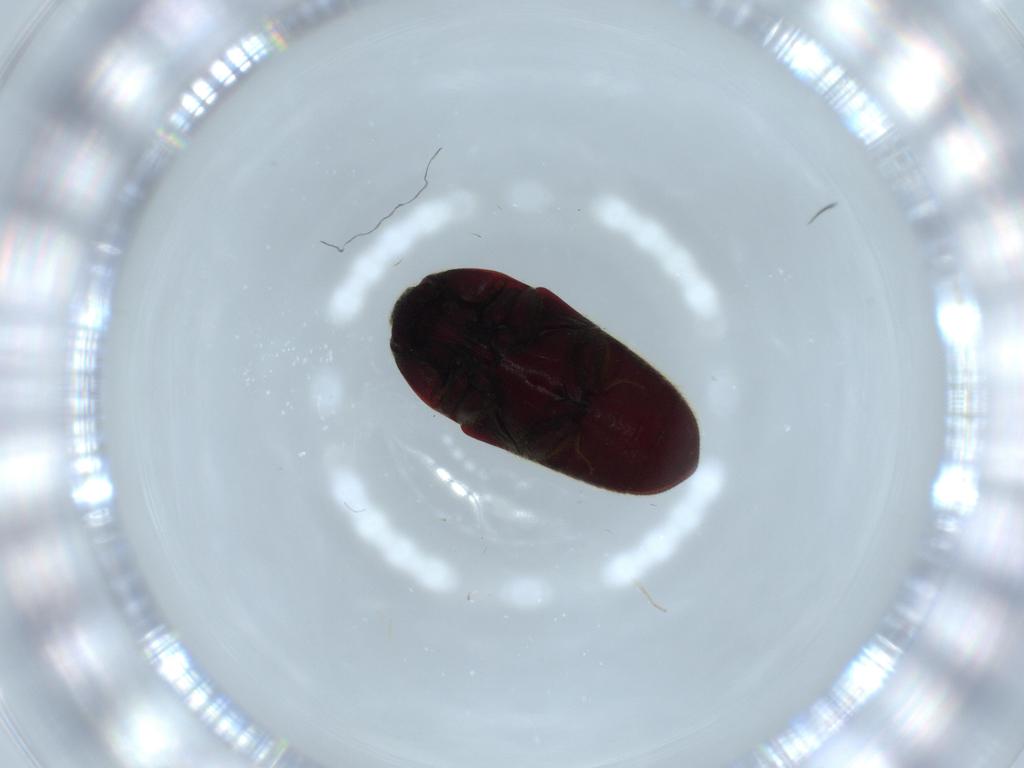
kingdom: Animalia
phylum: Arthropoda
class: Insecta
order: Coleoptera
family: Throscidae
